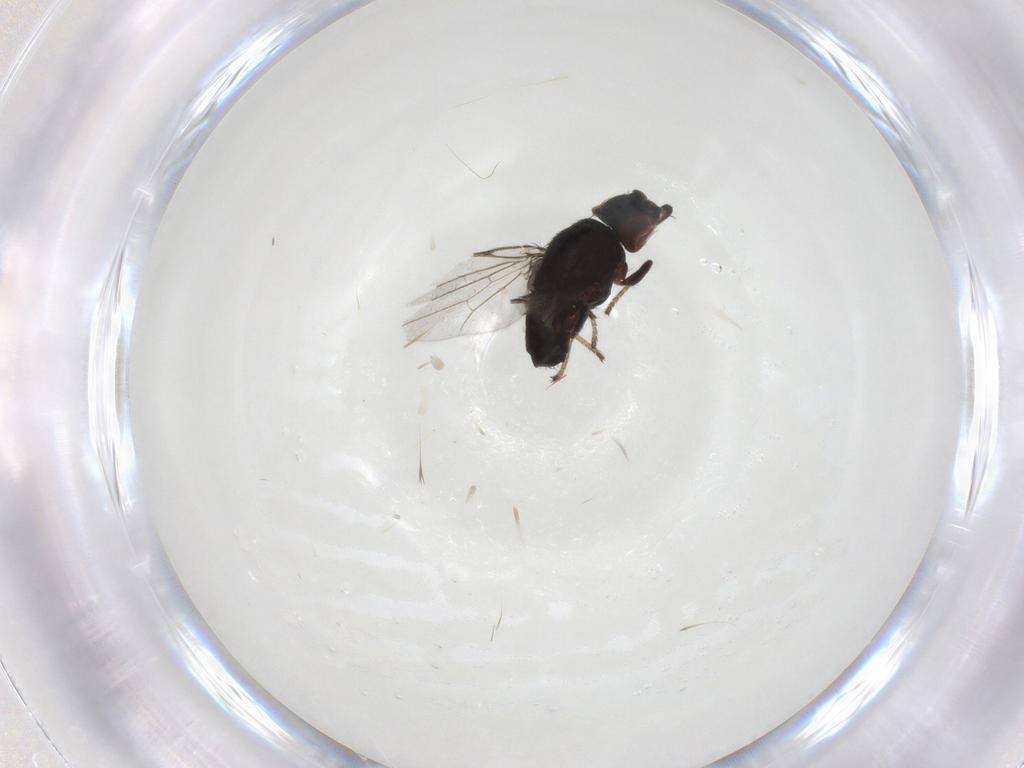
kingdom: Animalia
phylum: Arthropoda
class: Insecta
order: Diptera
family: Milichiidae
